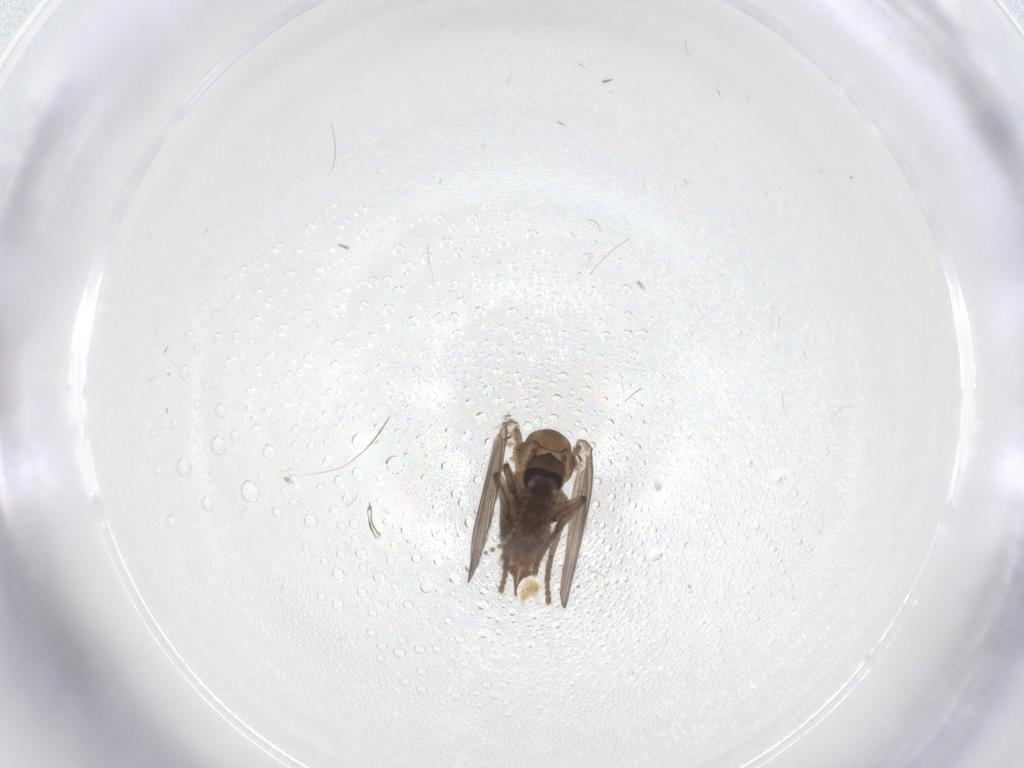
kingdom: Animalia
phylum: Arthropoda
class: Insecta
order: Diptera
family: Psychodidae
